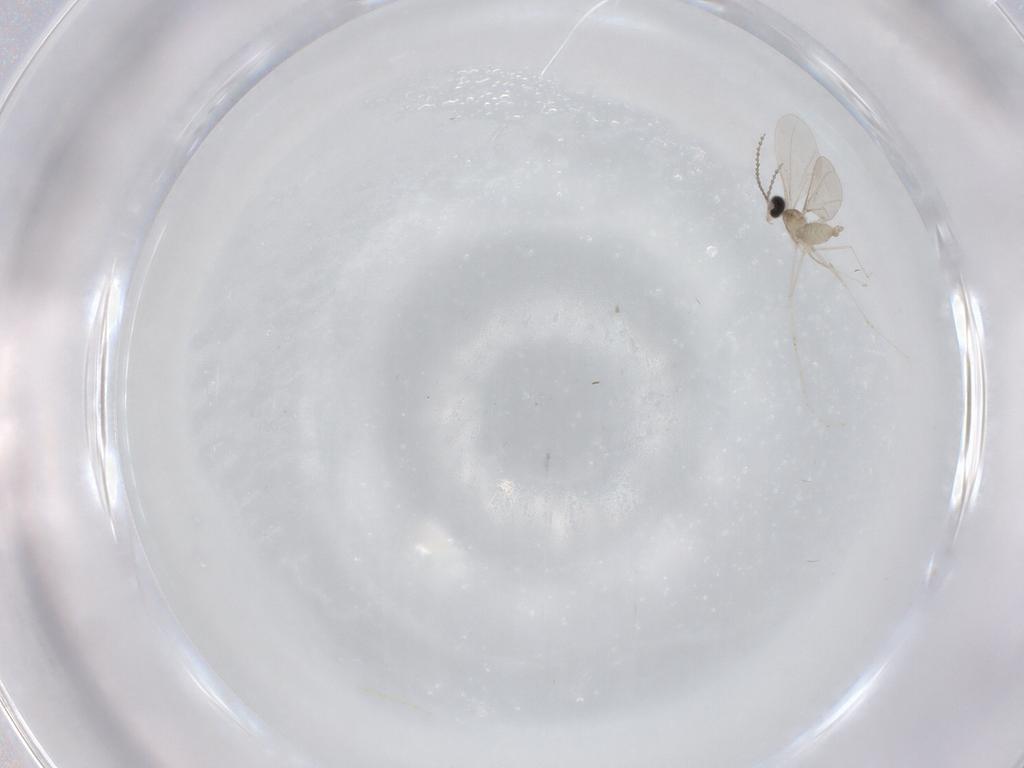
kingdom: Animalia
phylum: Arthropoda
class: Insecta
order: Diptera
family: Cecidomyiidae
